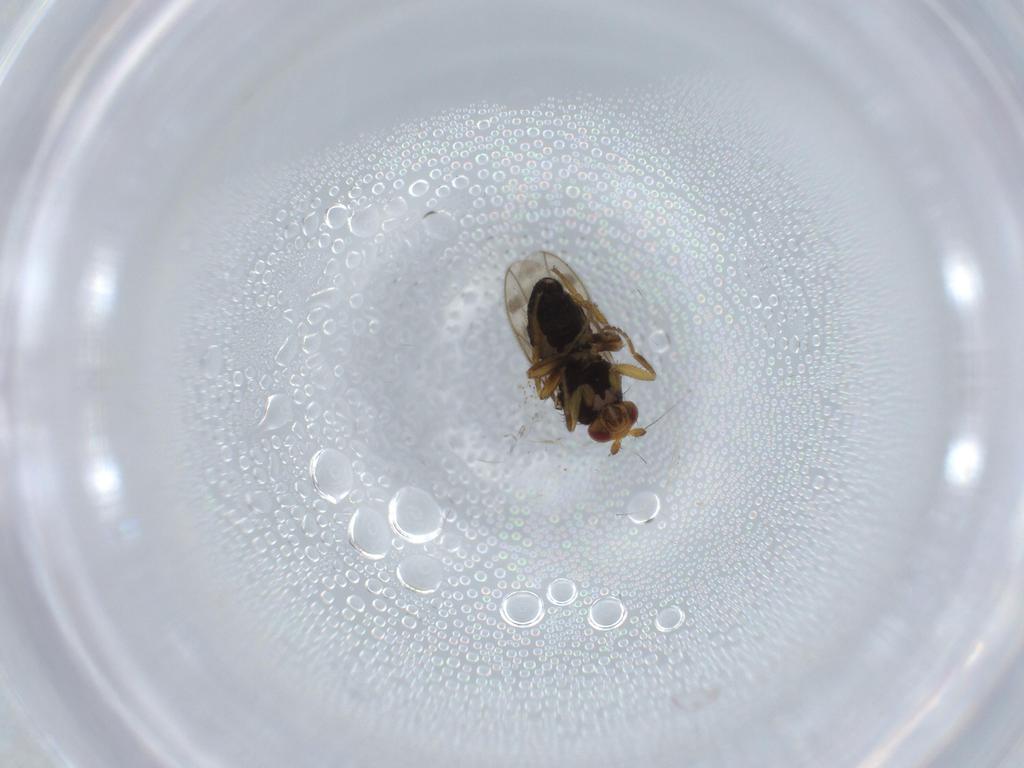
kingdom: Animalia
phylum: Arthropoda
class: Insecta
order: Diptera
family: Sphaeroceridae
